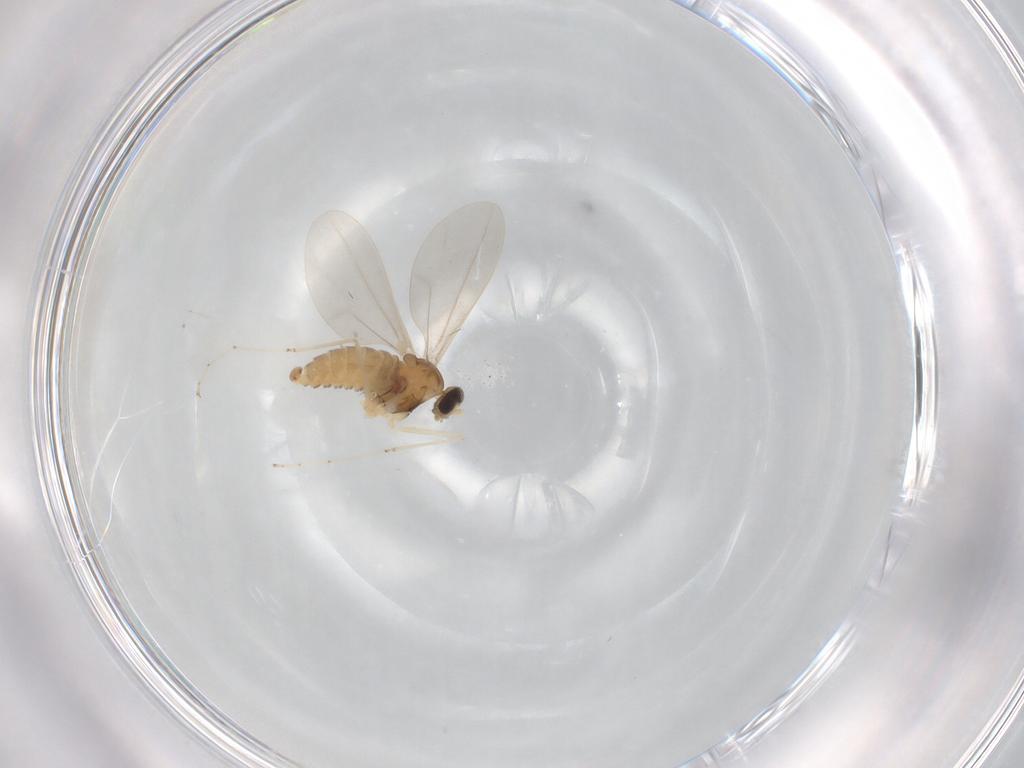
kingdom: Animalia
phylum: Arthropoda
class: Insecta
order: Diptera
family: Cecidomyiidae
